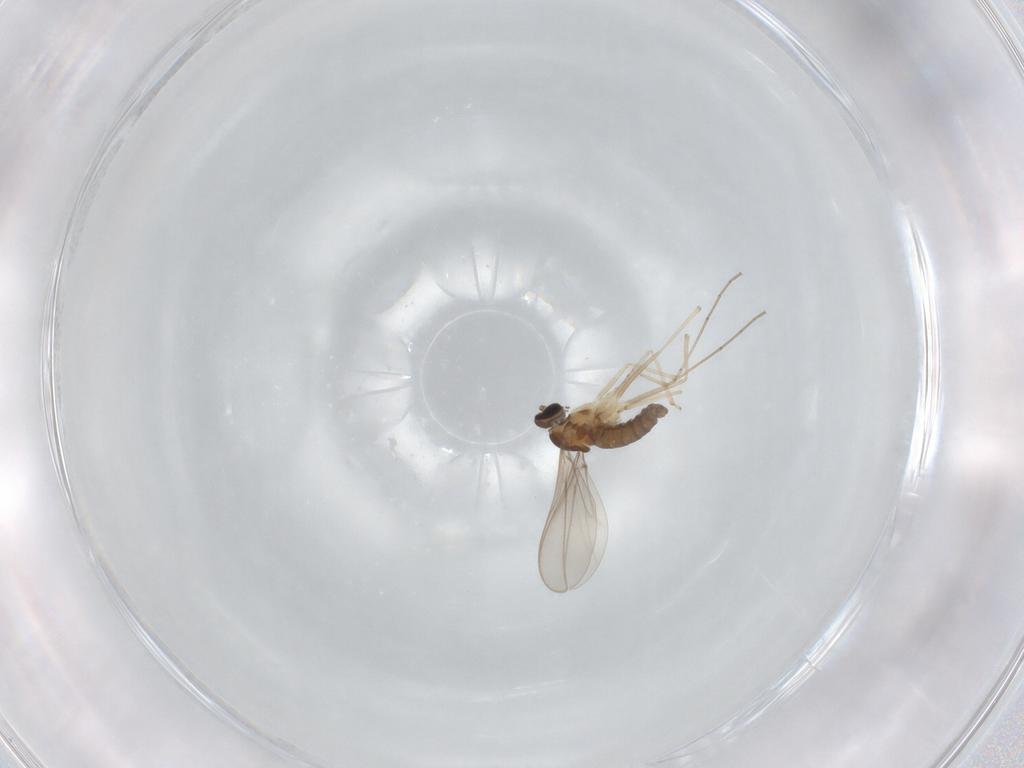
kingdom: Animalia
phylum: Arthropoda
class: Insecta
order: Diptera
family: Cecidomyiidae
